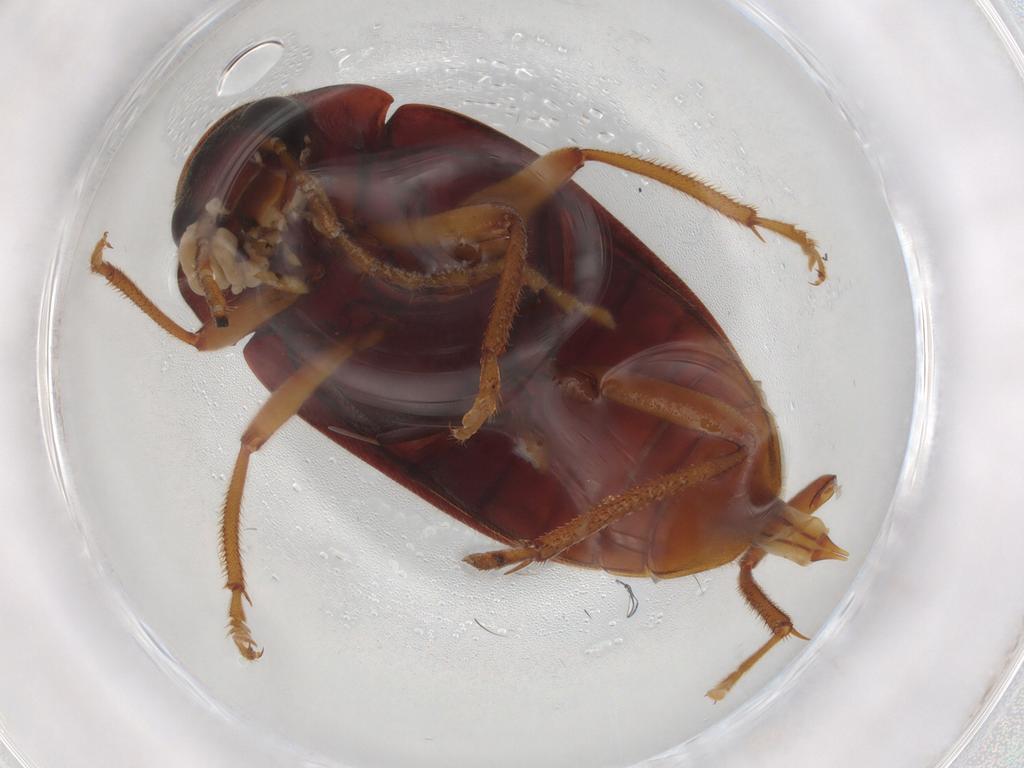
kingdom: Animalia
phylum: Arthropoda
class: Insecta
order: Coleoptera
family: Ptilodactylidae
